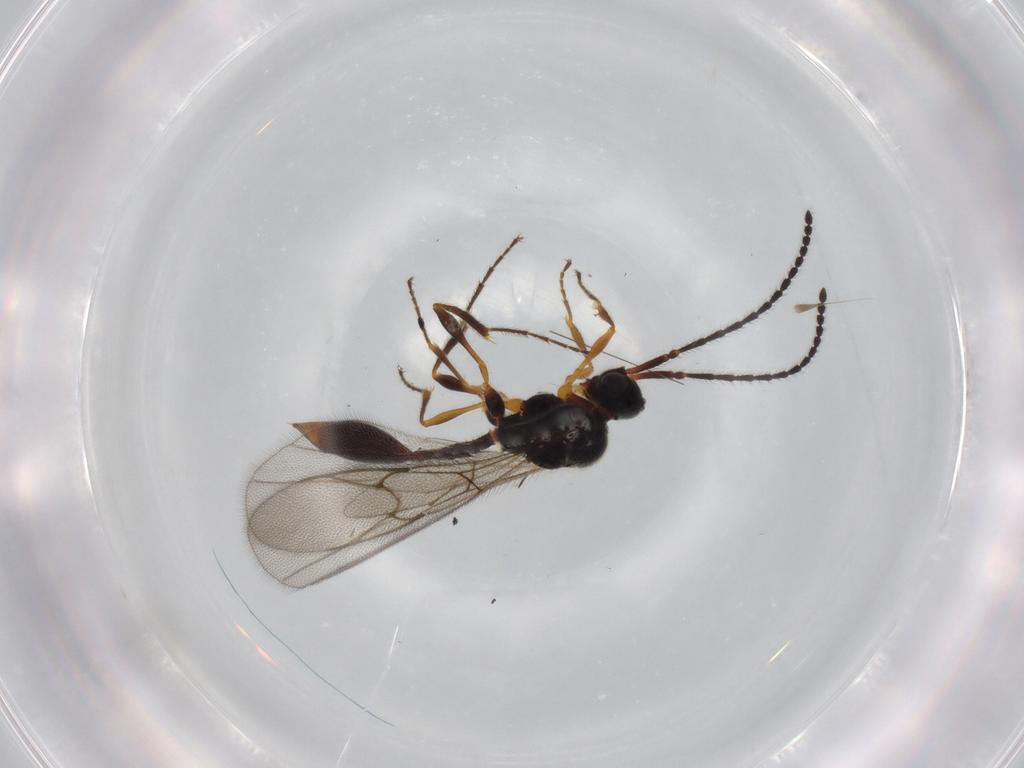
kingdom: Animalia
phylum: Arthropoda
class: Insecta
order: Hymenoptera
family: Diapriidae
